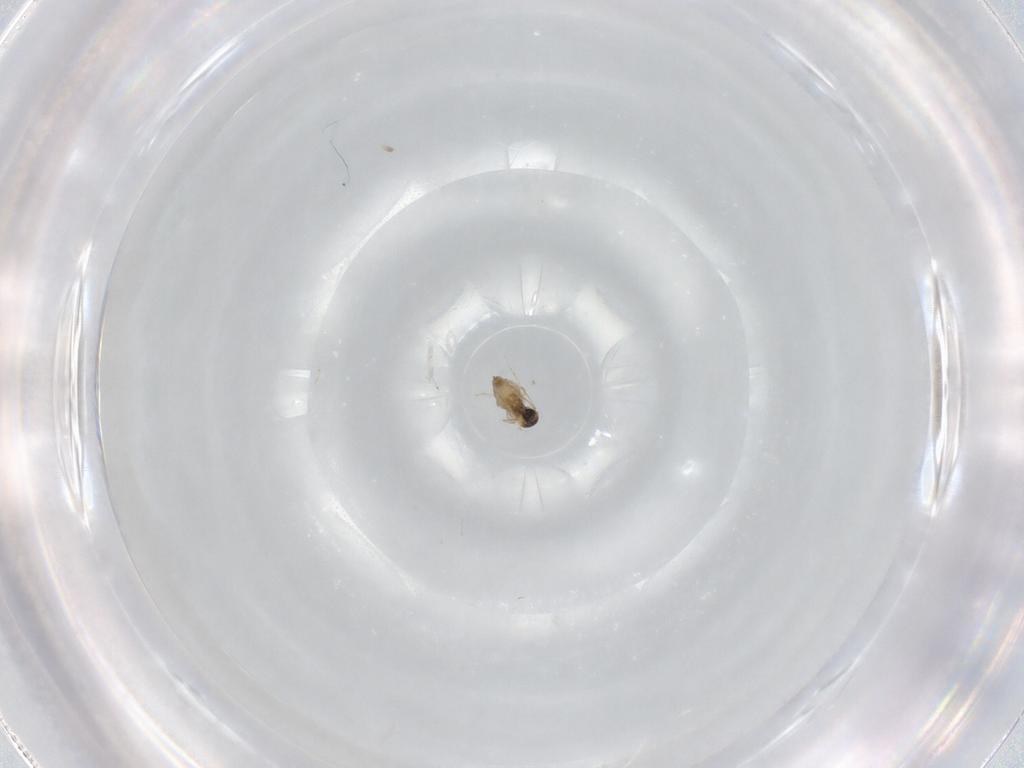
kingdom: Animalia
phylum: Arthropoda
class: Insecta
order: Diptera
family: Cecidomyiidae
